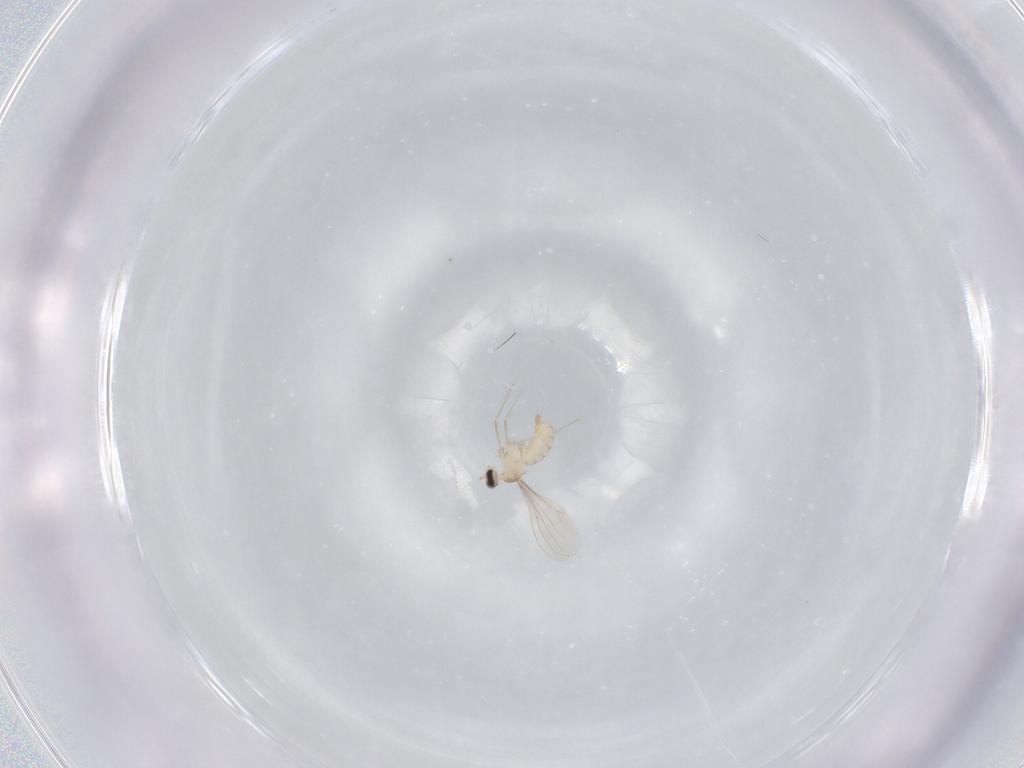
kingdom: Animalia
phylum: Arthropoda
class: Insecta
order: Diptera
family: Cecidomyiidae
